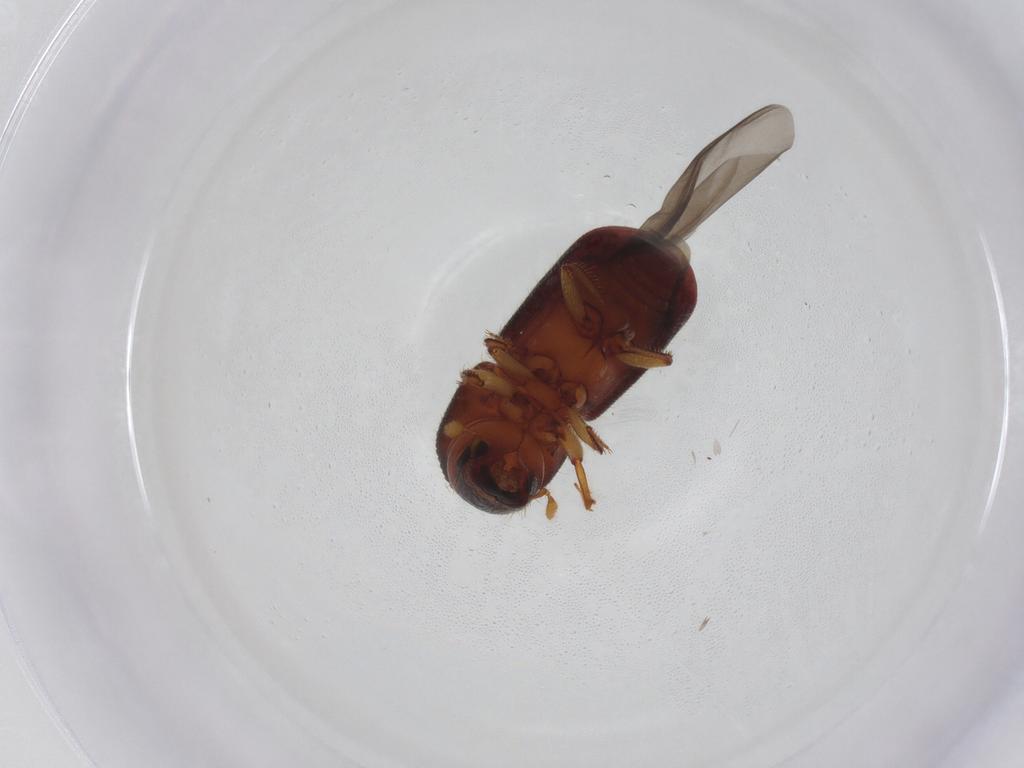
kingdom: Animalia
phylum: Arthropoda
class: Insecta
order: Coleoptera
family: Curculionidae
